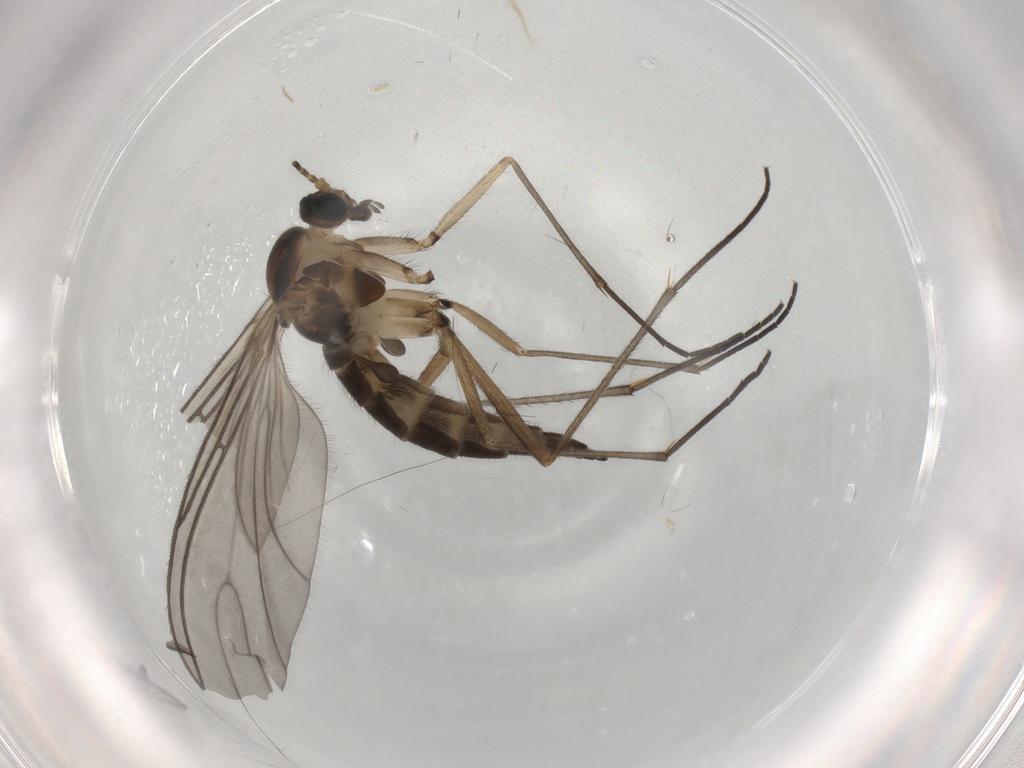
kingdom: Animalia
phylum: Arthropoda
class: Insecta
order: Diptera
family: Sciaridae
